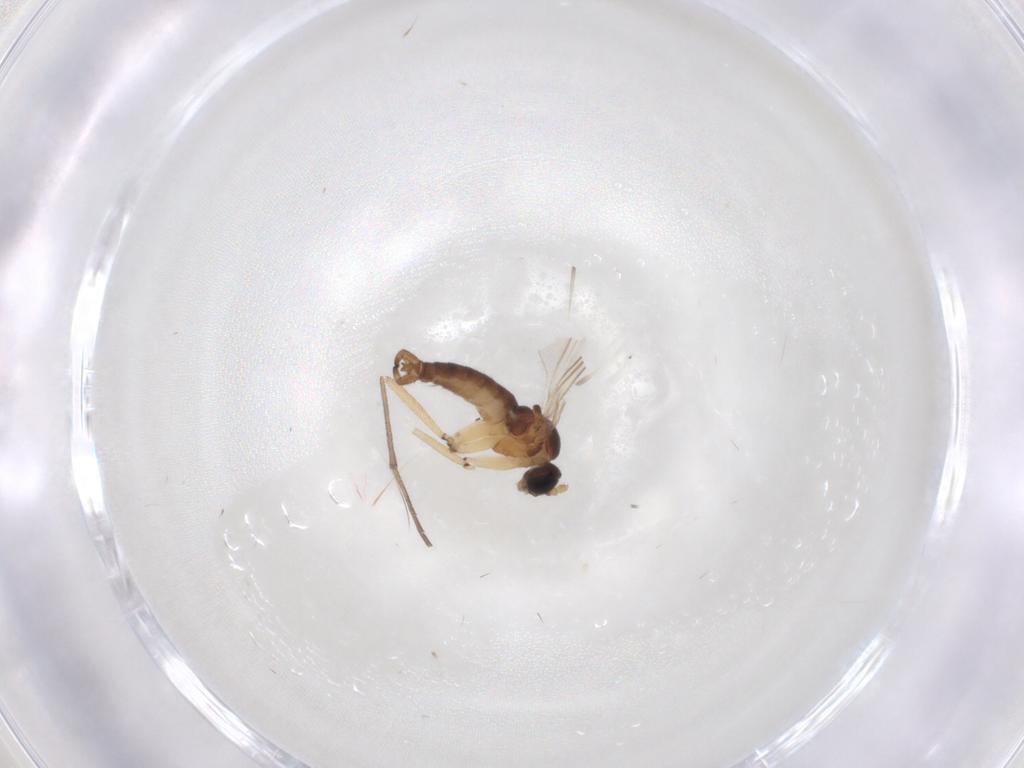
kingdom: Animalia
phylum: Arthropoda
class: Insecta
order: Diptera
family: Sciaridae
